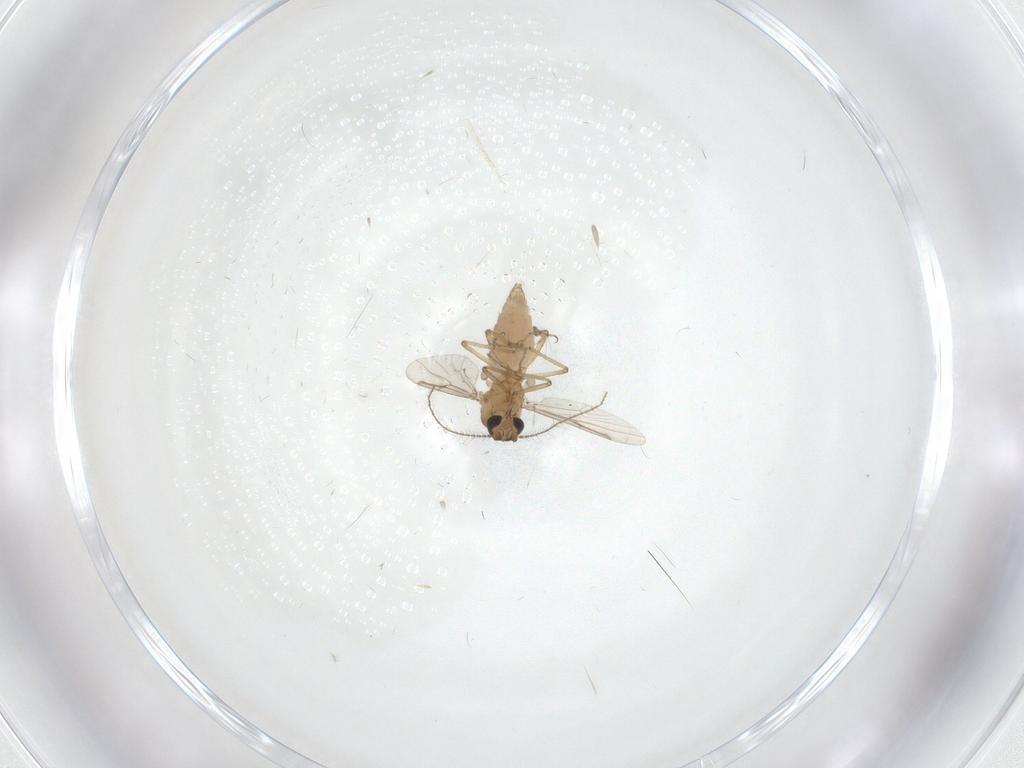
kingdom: Animalia
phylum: Arthropoda
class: Insecta
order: Diptera
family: Ceratopogonidae
